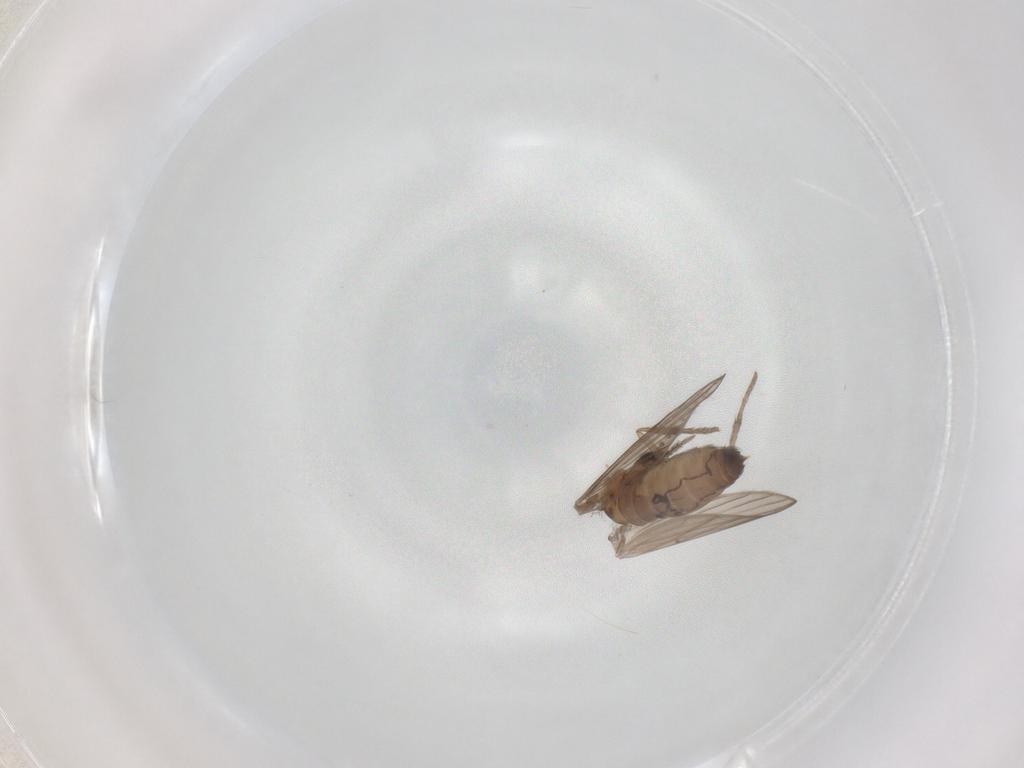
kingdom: Animalia
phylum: Arthropoda
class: Insecta
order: Diptera
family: Psychodidae
